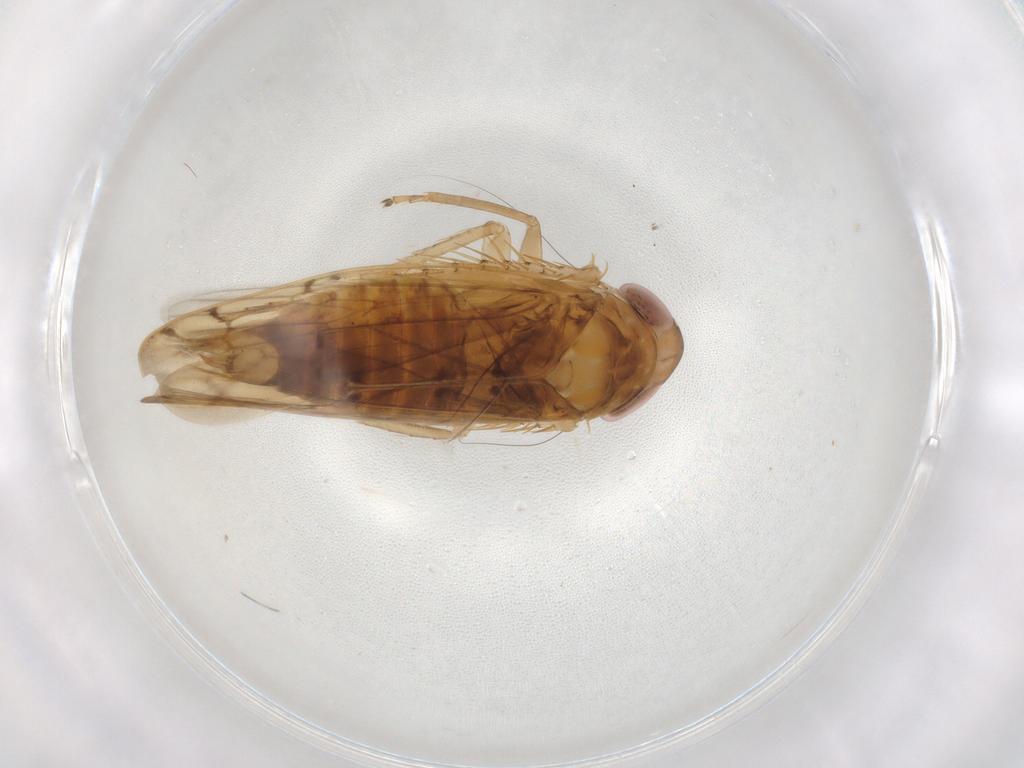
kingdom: Animalia
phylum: Arthropoda
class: Insecta
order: Hemiptera
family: Cicadellidae
